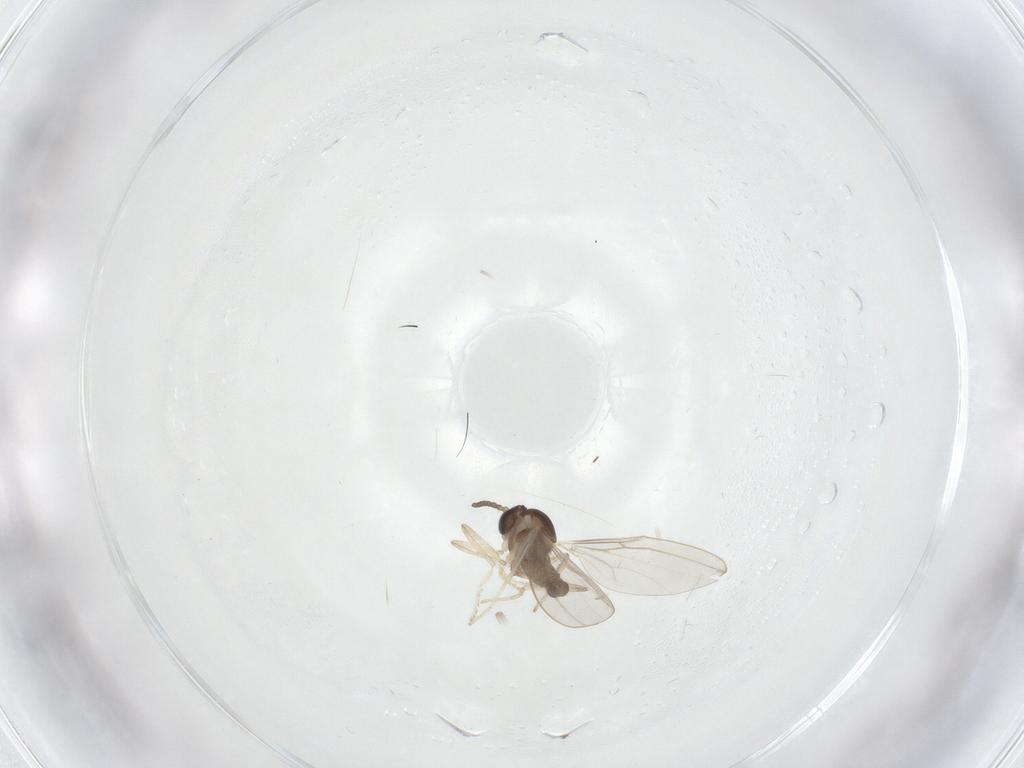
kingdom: Animalia
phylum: Arthropoda
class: Insecta
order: Diptera
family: Cecidomyiidae
